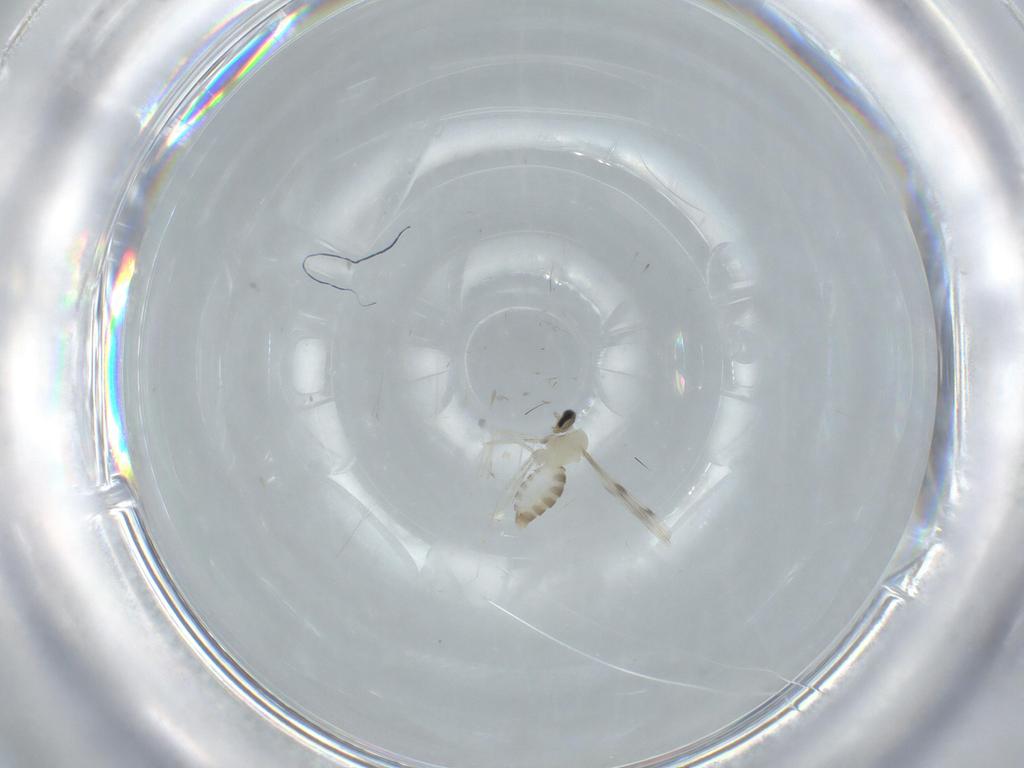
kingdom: Animalia
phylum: Arthropoda
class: Insecta
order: Diptera
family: Cecidomyiidae
